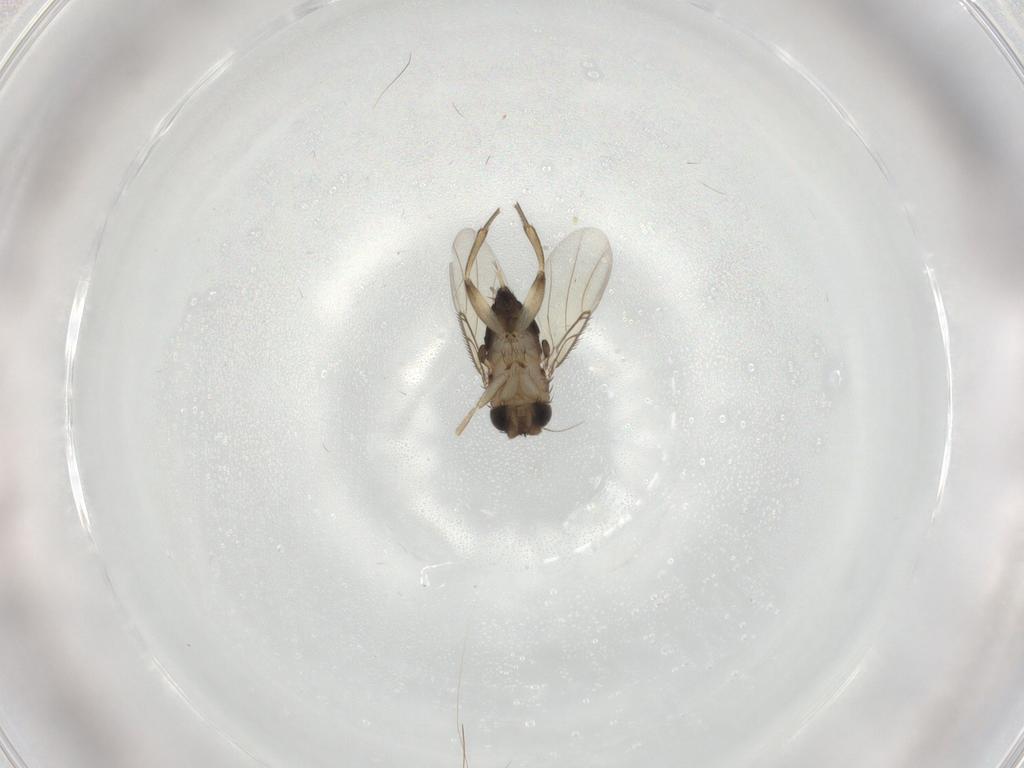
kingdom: Animalia
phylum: Arthropoda
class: Insecta
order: Diptera
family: Phoridae
